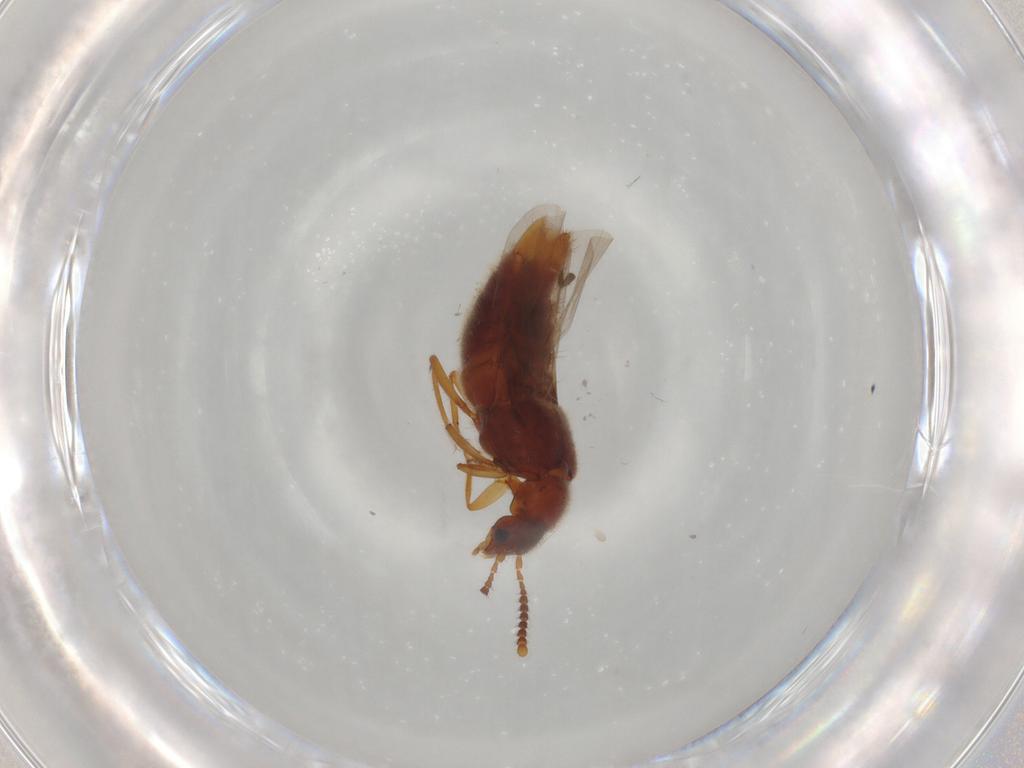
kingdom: Animalia
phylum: Arthropoda
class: Insecta
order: Coleoptera
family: Staphylinidae
